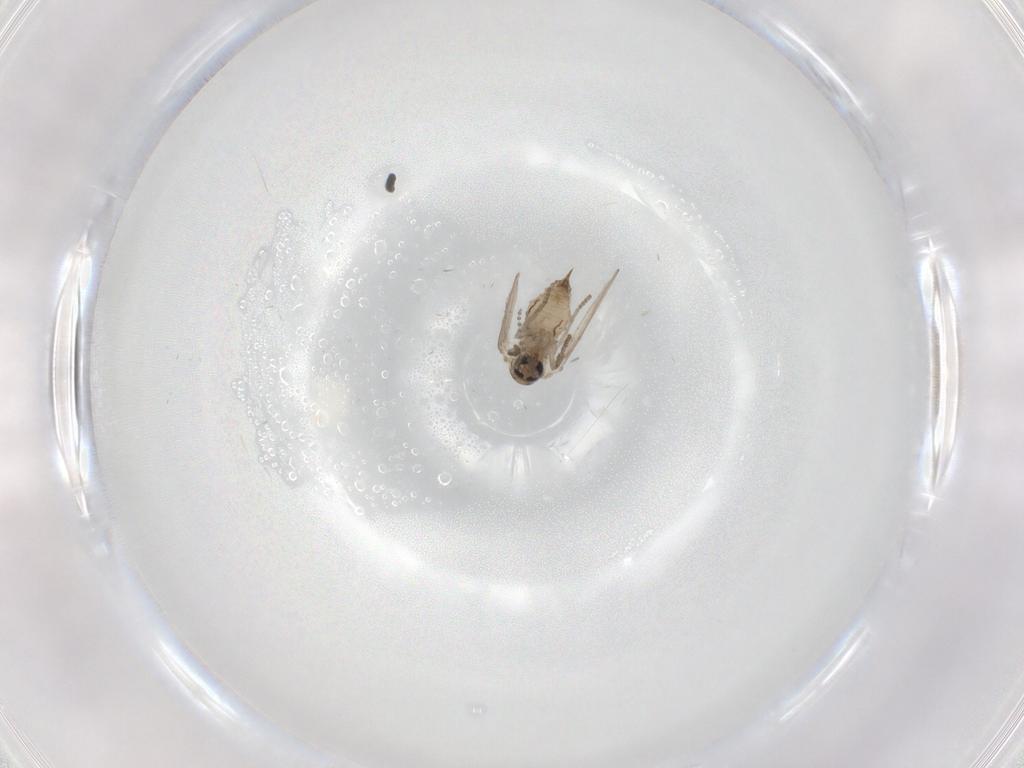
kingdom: Animalia
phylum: Arthropoda
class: Insecta
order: Diptera
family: Psychodidae
